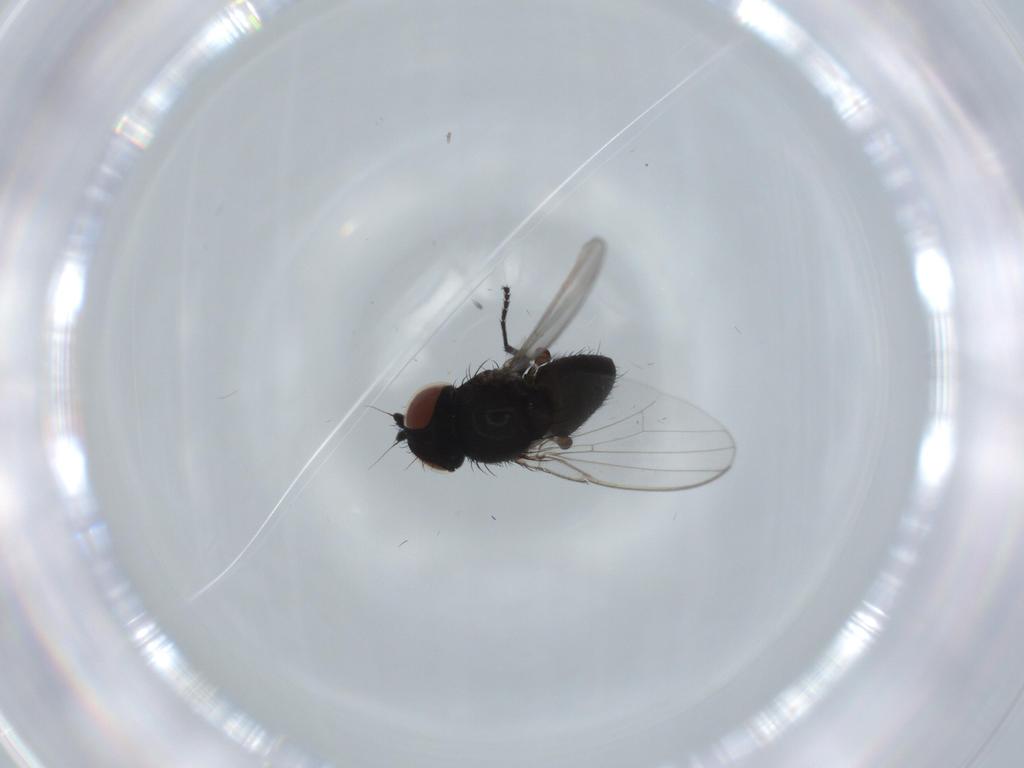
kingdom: Animalia
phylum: Arthropoda
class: Insecta
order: Diptera
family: Milichiidae
